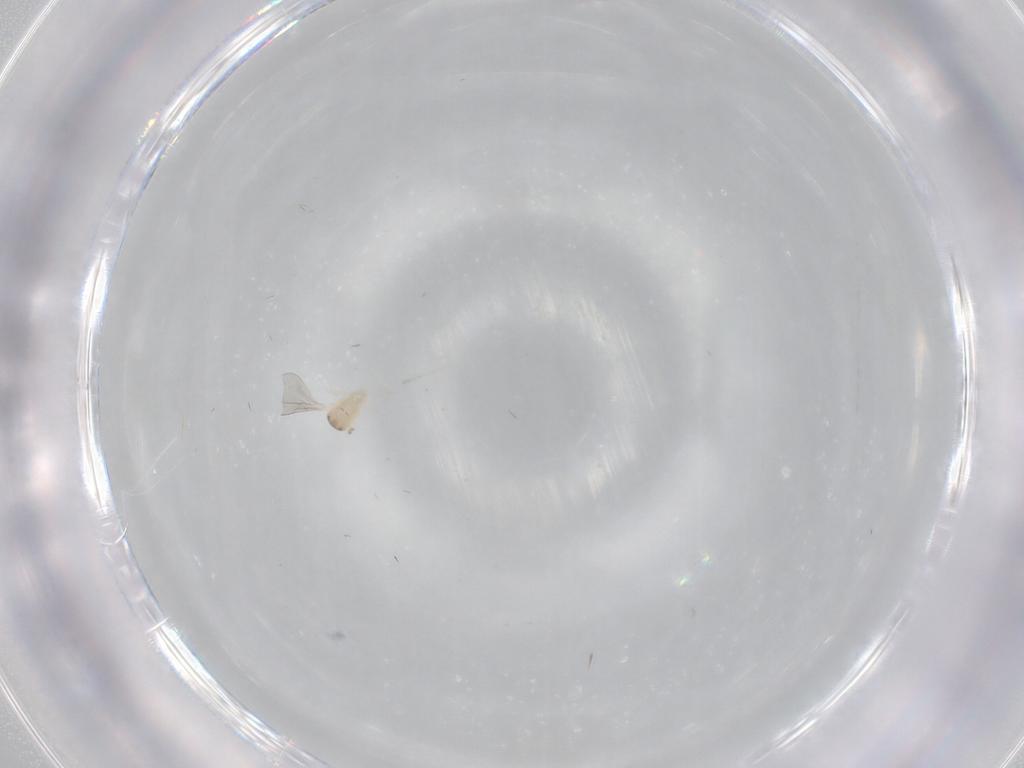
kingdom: Animalia
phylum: Arthropoda
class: Insecta
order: Diptera
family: Cecidomyiidae
